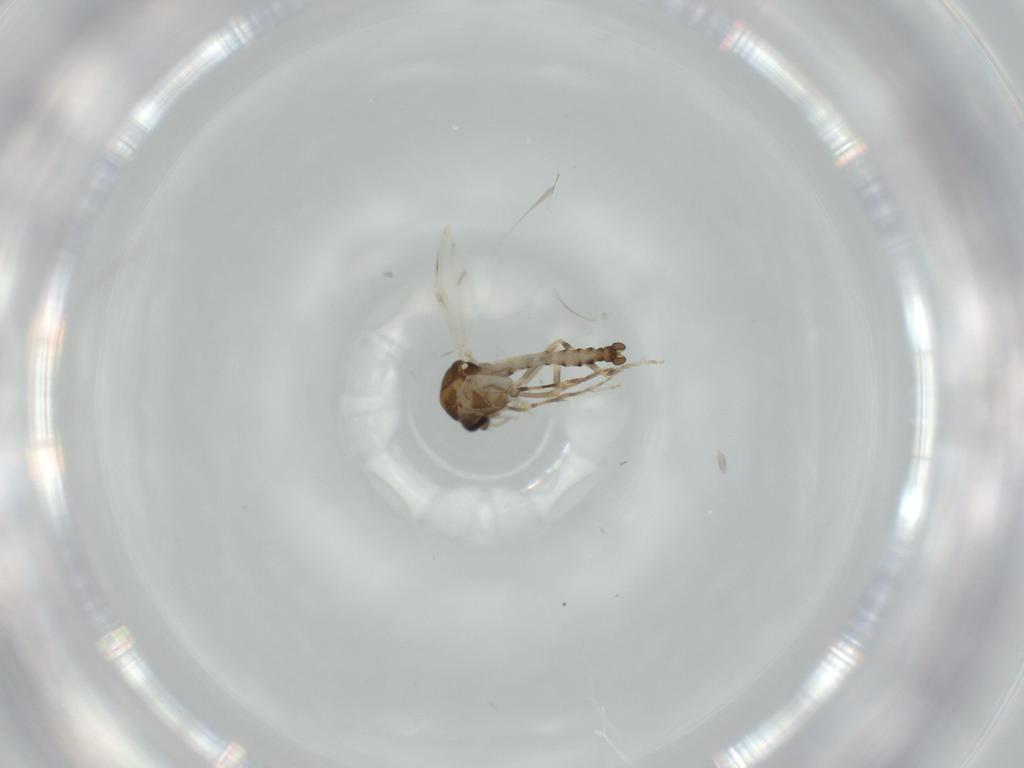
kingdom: Animalia
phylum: Arthropoda
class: Insecta
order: Diptera
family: Ceratopogonidae
